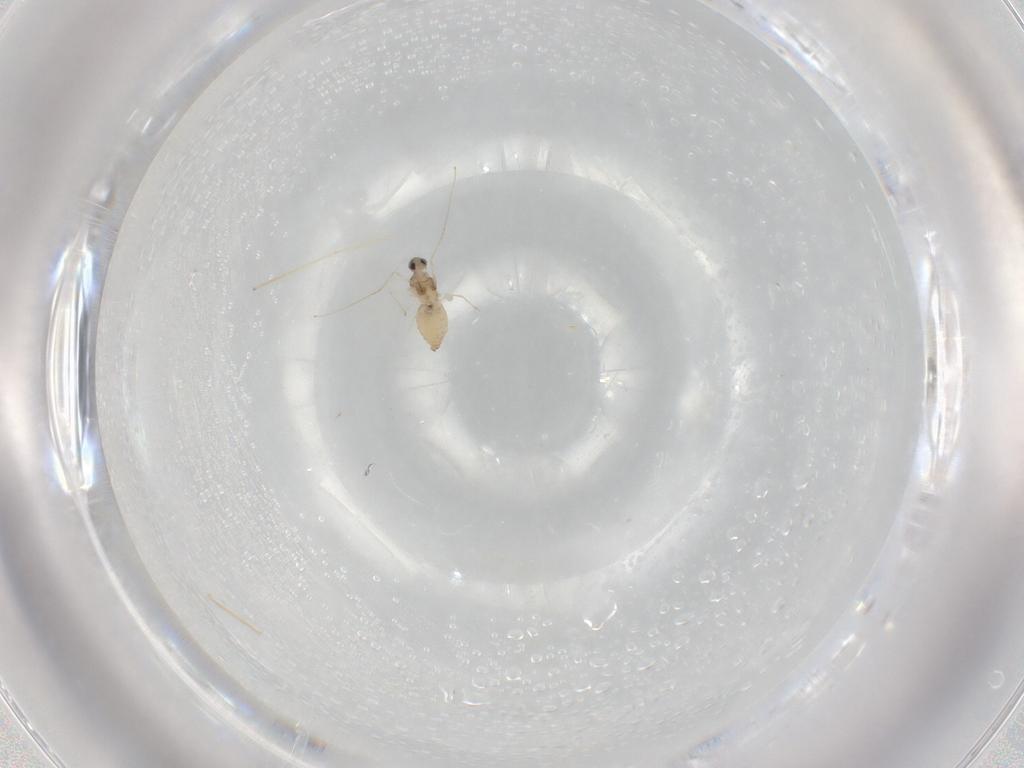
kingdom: Animalia
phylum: Arthropoda
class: Insecta
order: Diptera
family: Chironomidae
